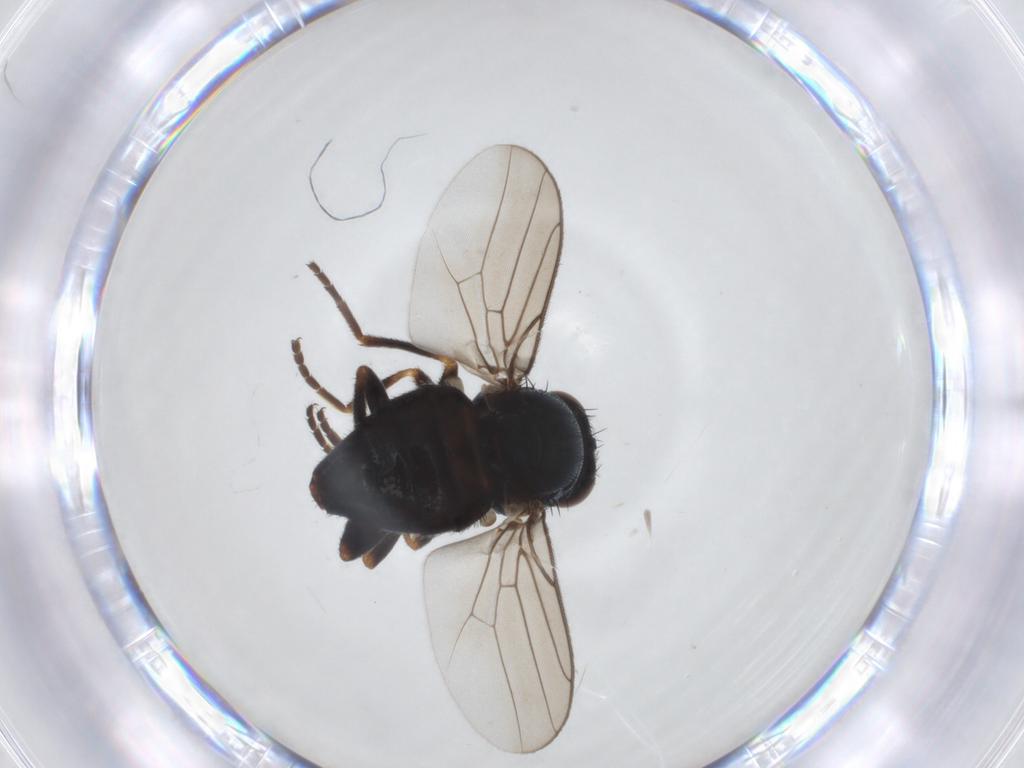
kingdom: Animalia
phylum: Arthropoda
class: Insecta
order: Diptera
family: Chloropidae
